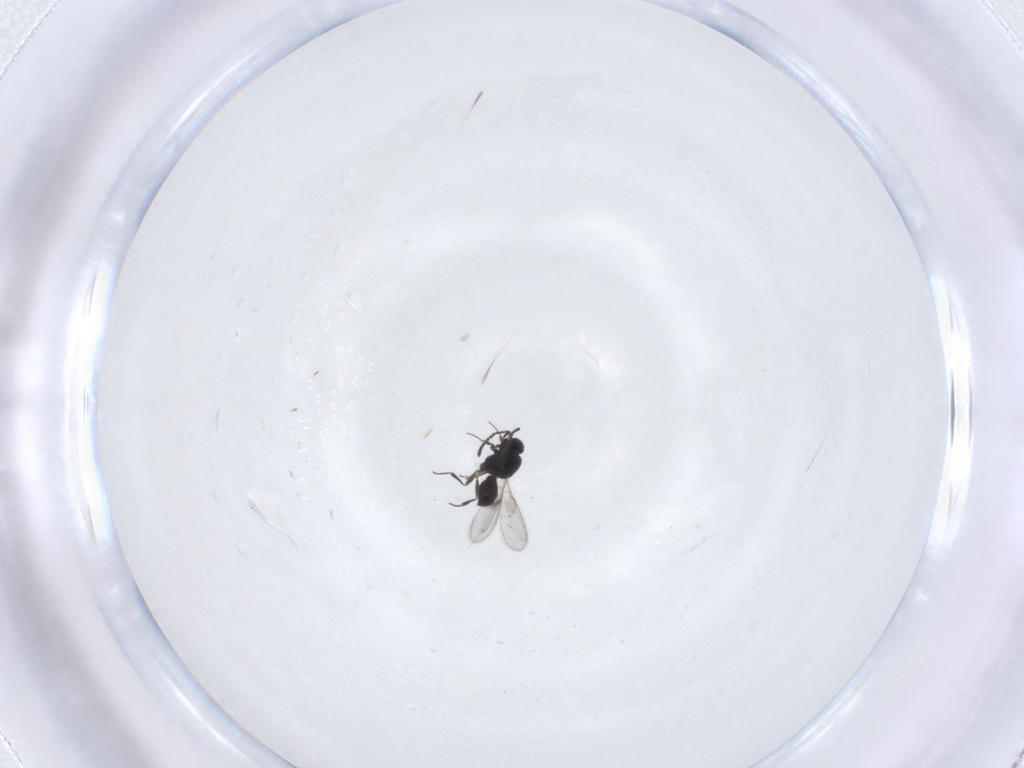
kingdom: Animalia
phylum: Arthropoda
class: Insecta
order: Hymenoptera
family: Scelionidae
